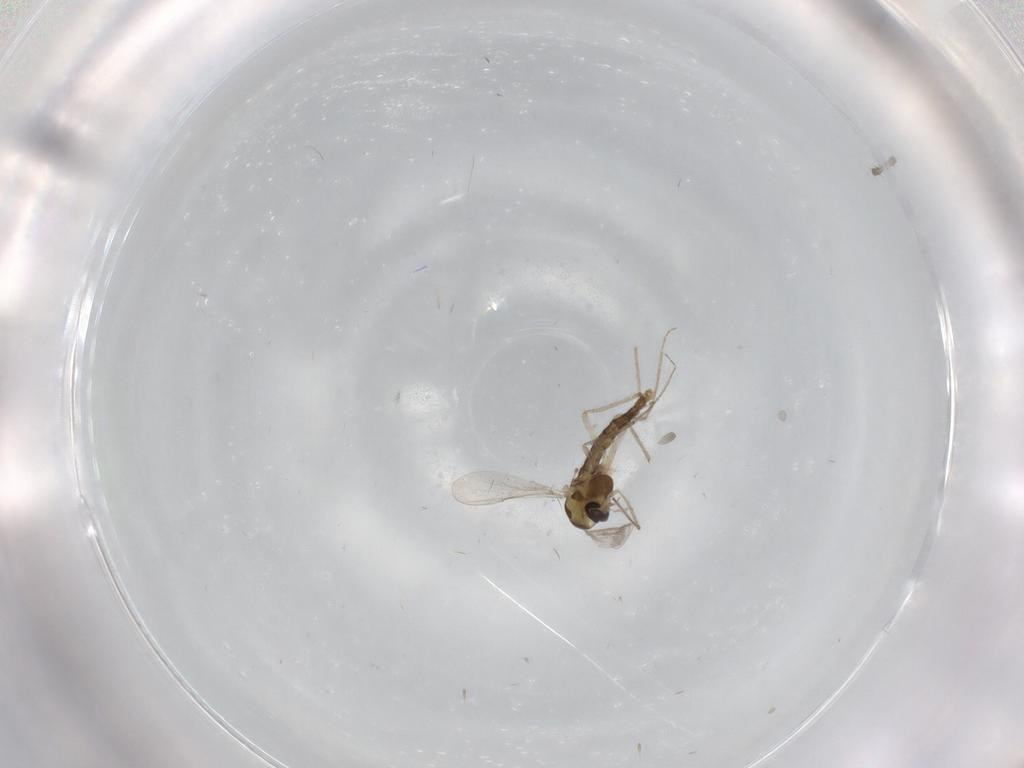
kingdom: Animalia
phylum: Arthropoda
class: Insecta
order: Diptera
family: Chironomidae
